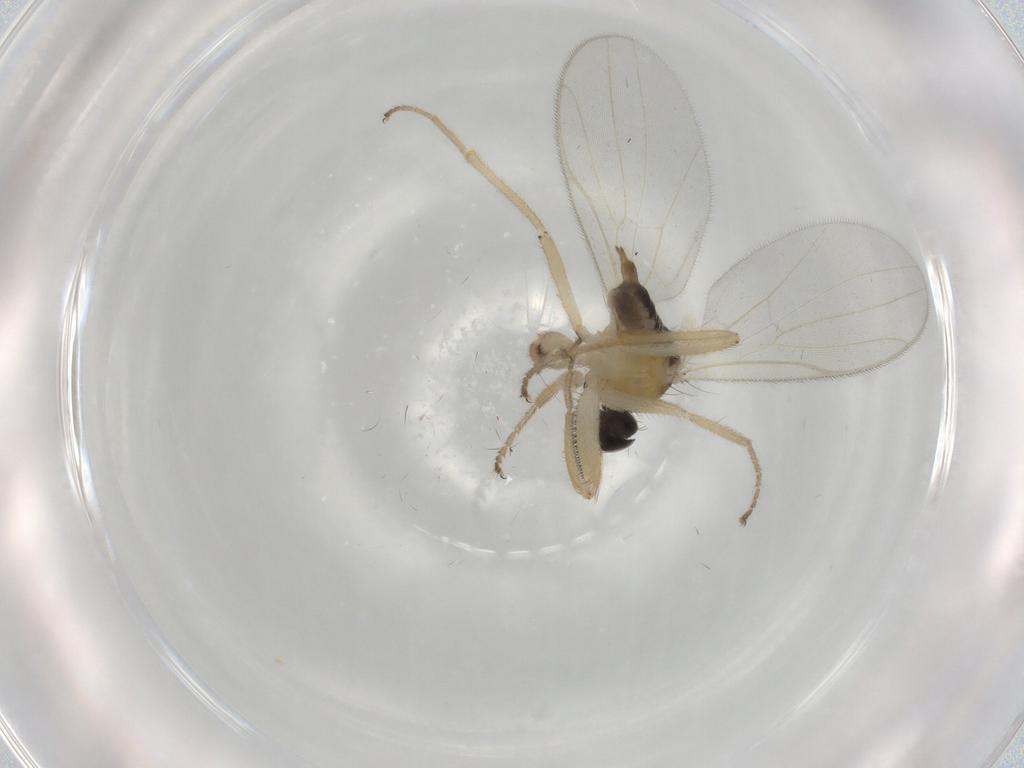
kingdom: Animalia
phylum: Arthropoda
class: Insecta
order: Diptera
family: Hybotidae
